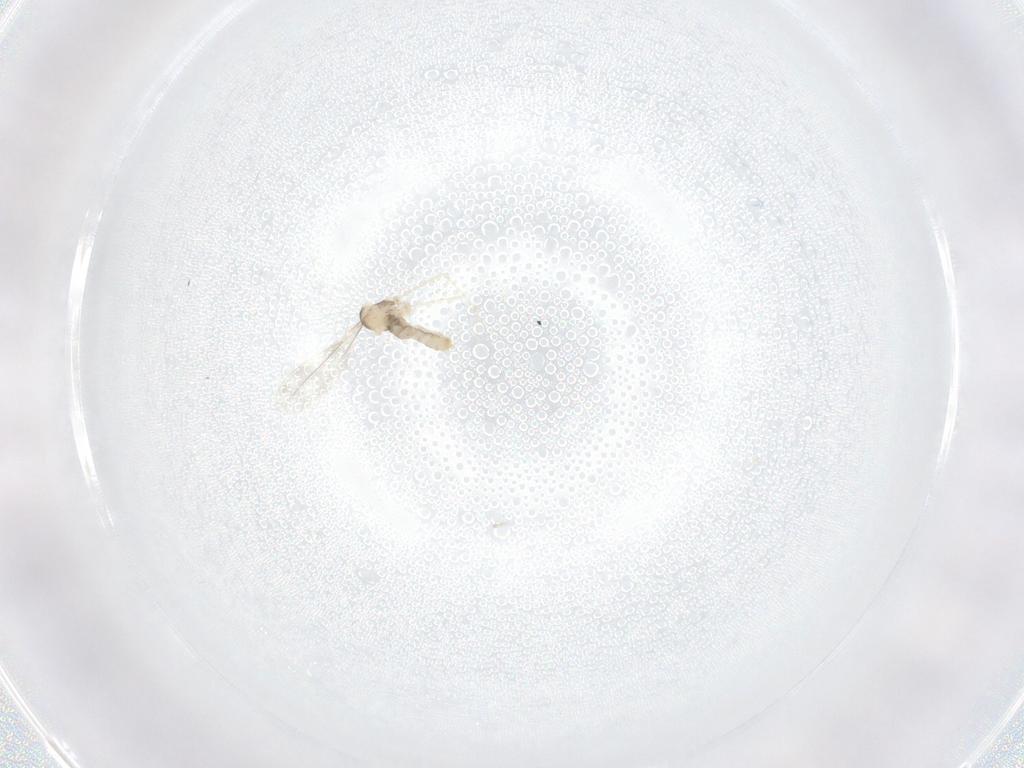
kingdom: Animalia
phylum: Arthropoda
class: Insecta
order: Diptera
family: Cecidomyiidae
